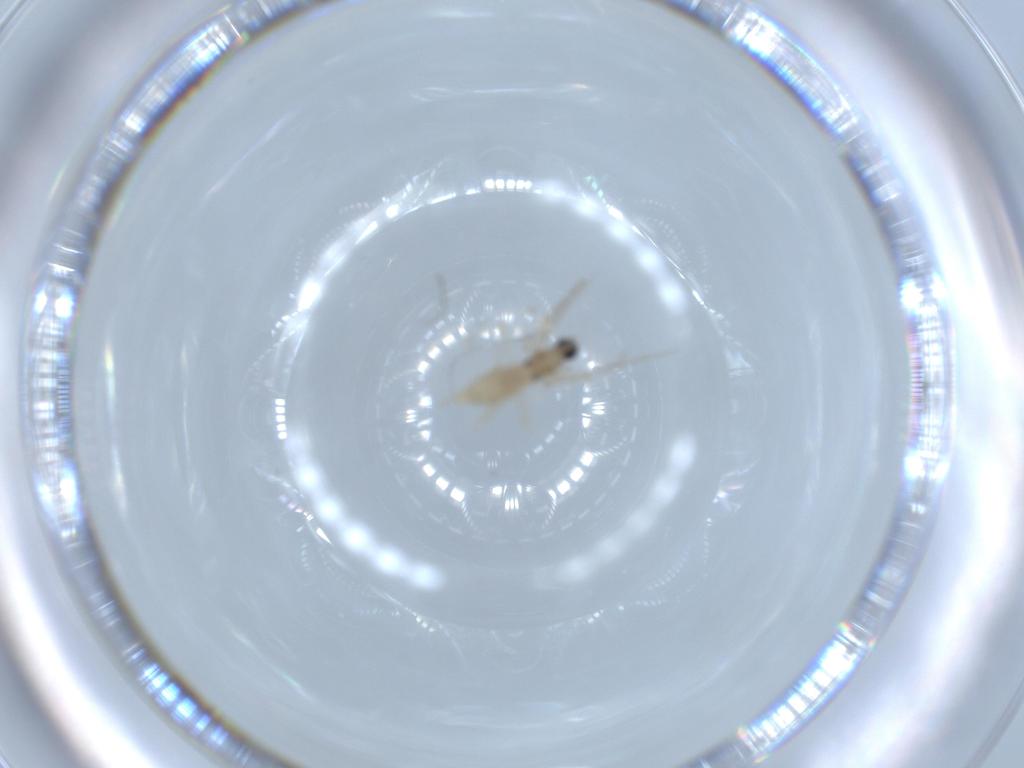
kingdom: Animalia
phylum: Arthropoda
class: Insecta
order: Diptera
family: Cecidomyiidae
